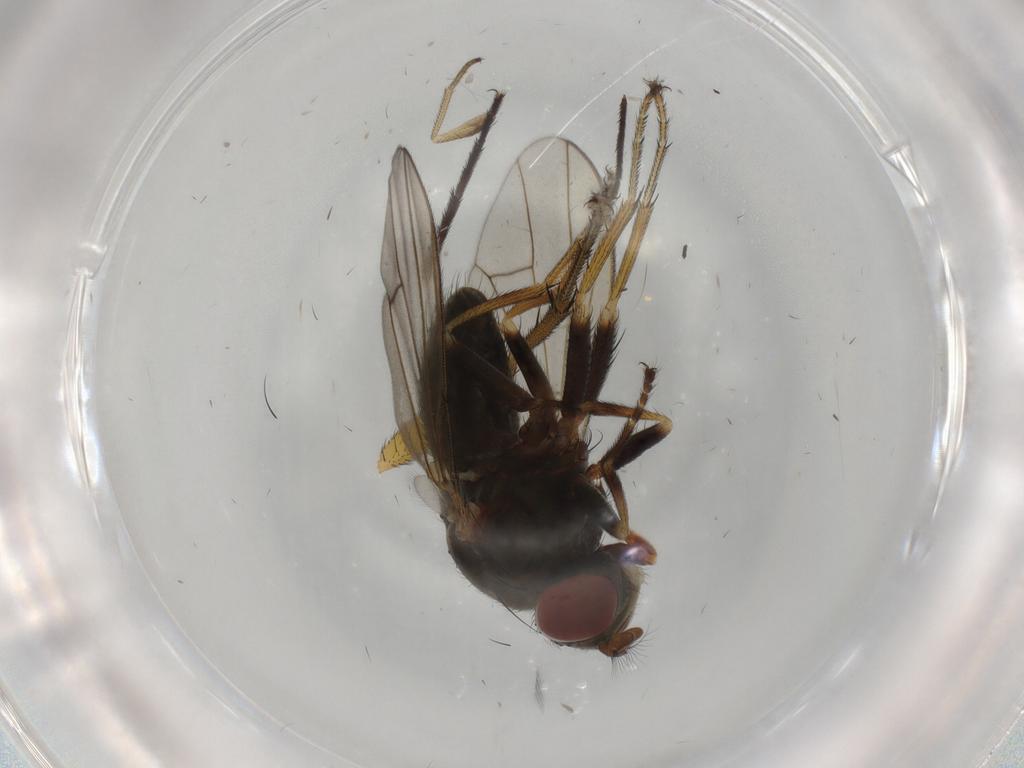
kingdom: Animalia
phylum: Arthropoda
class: Insecta
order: Diptera
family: Muscidae
